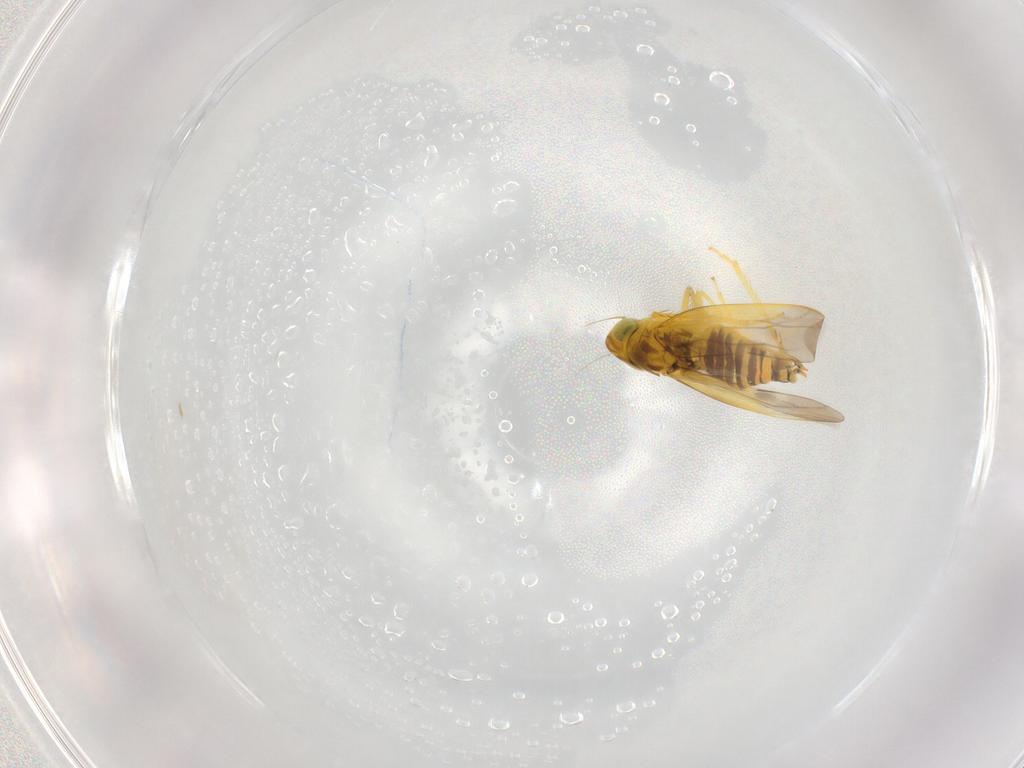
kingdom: Animalia
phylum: Arthropoda
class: Insecta
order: Hemiptera
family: Cicadellidae
